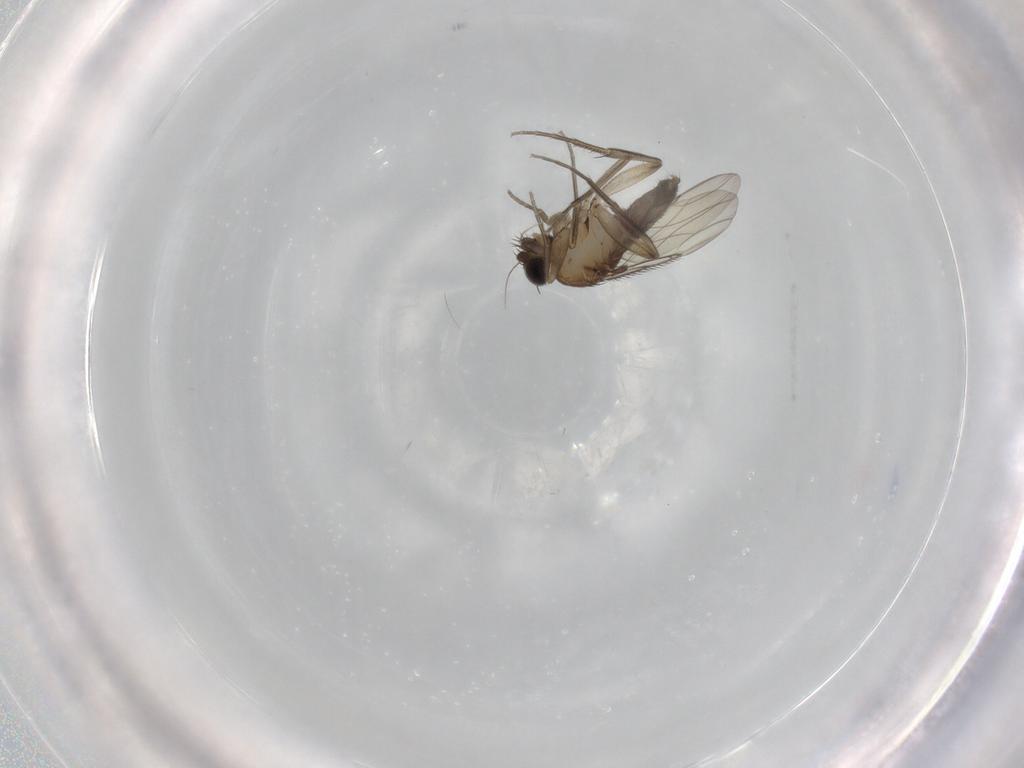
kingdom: Animalia
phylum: Arthropoda
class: Insecta
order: Diptera
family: Phoridae
